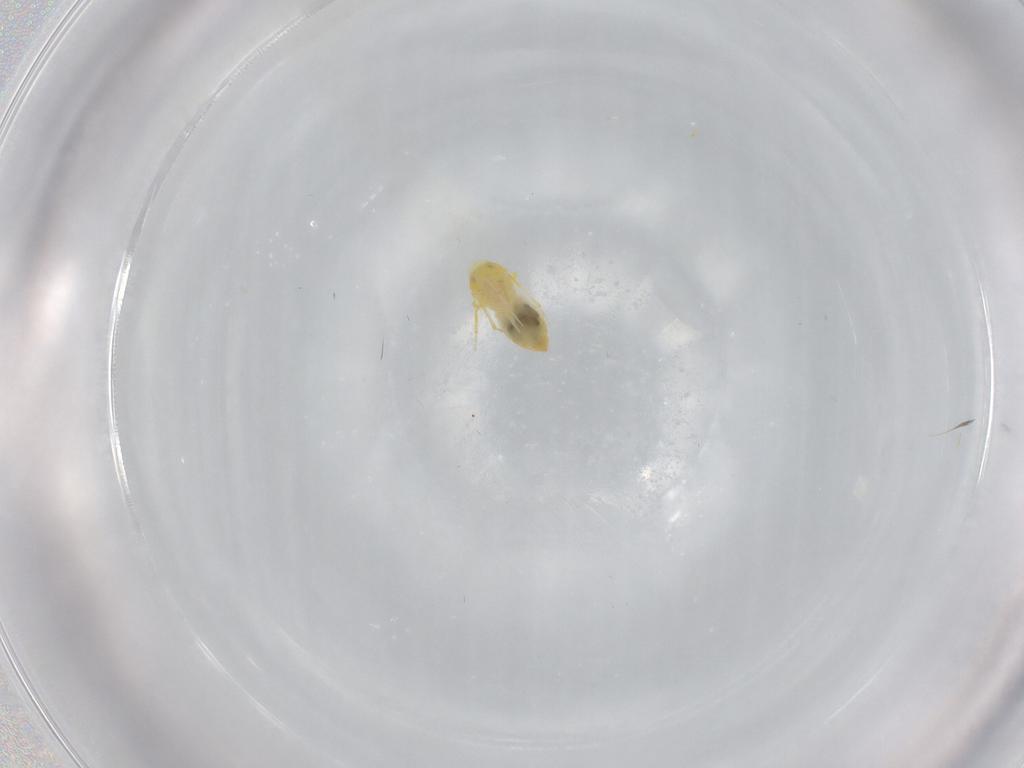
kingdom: Animalia
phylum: Arthropoda
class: Insecta
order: Hemiptera
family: Aleyrodidae
